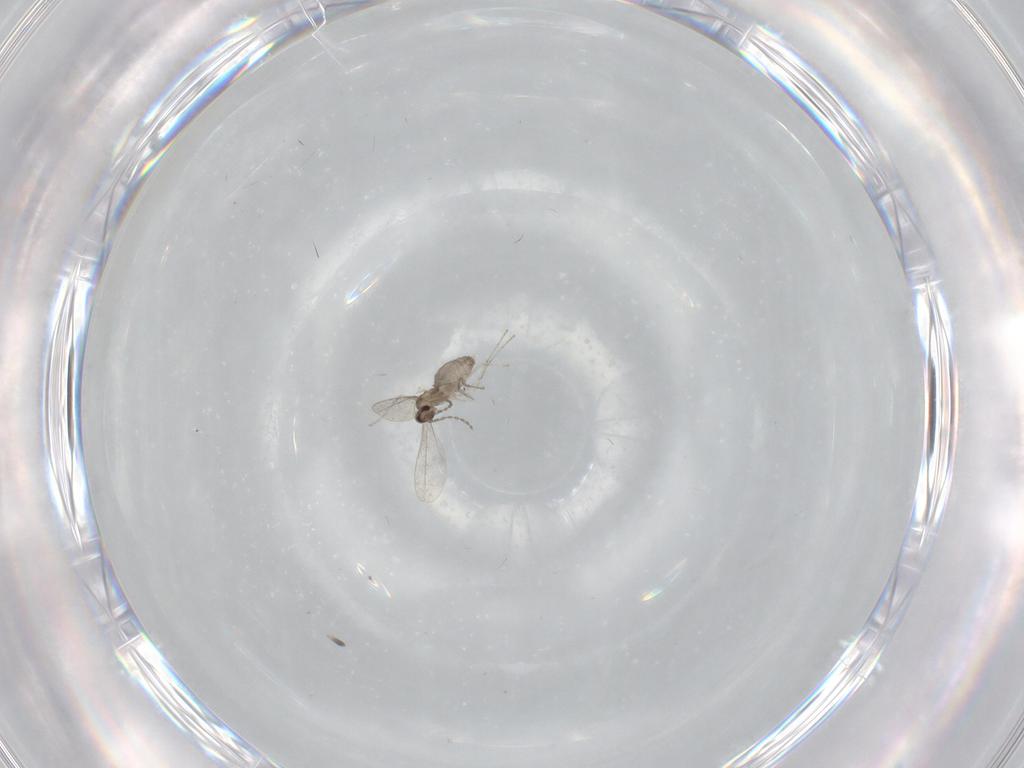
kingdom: Animalia
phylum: Arthropoda
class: Insecta
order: Diptera
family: Cecidomyiidae
